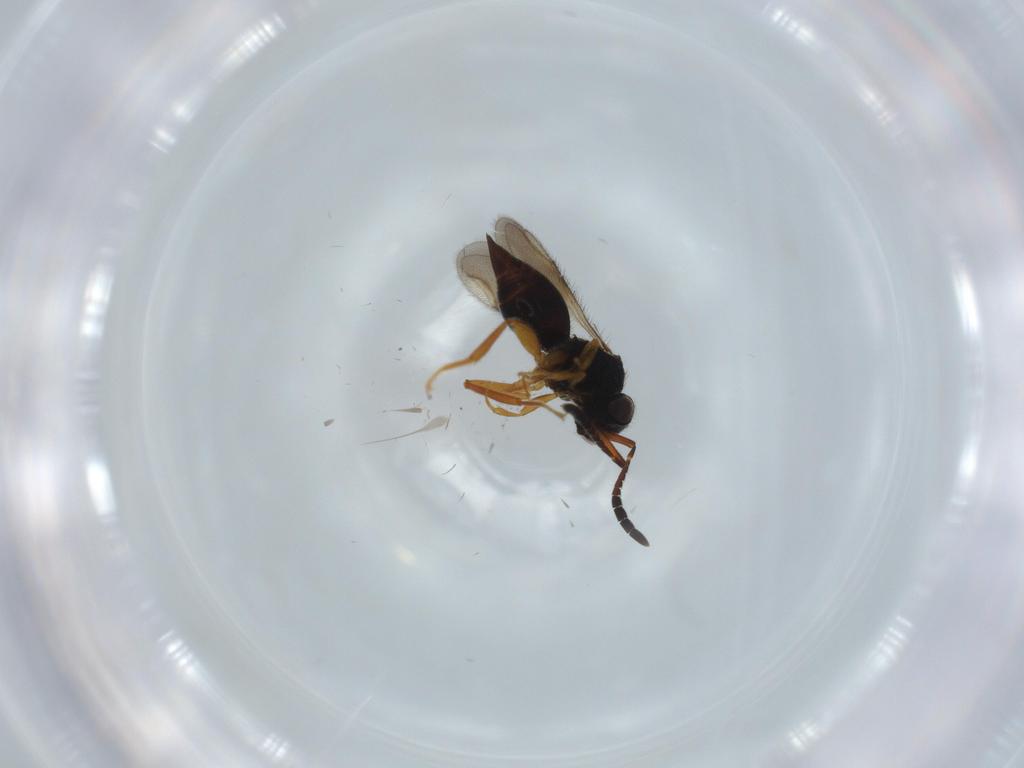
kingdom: Animalia
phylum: Arthropoda
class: Insecta
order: Hymenoptera
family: Ceraphronidae
